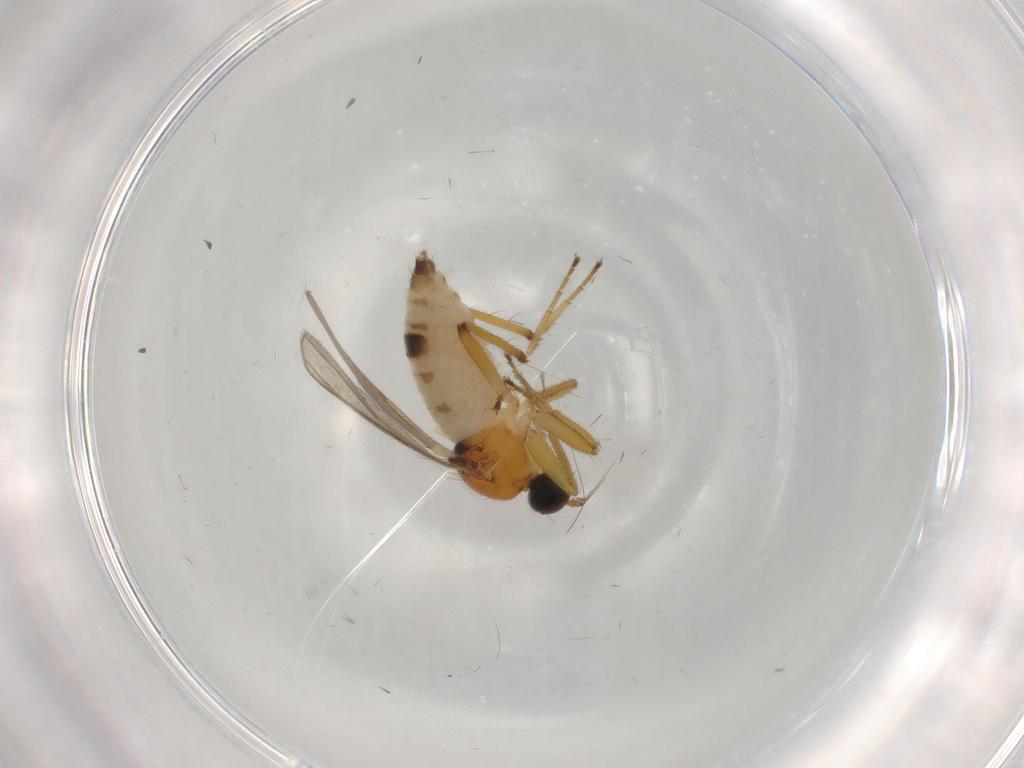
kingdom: Animalia
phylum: Arthropoda
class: Insecta
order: Diptera
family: Hybotidae
